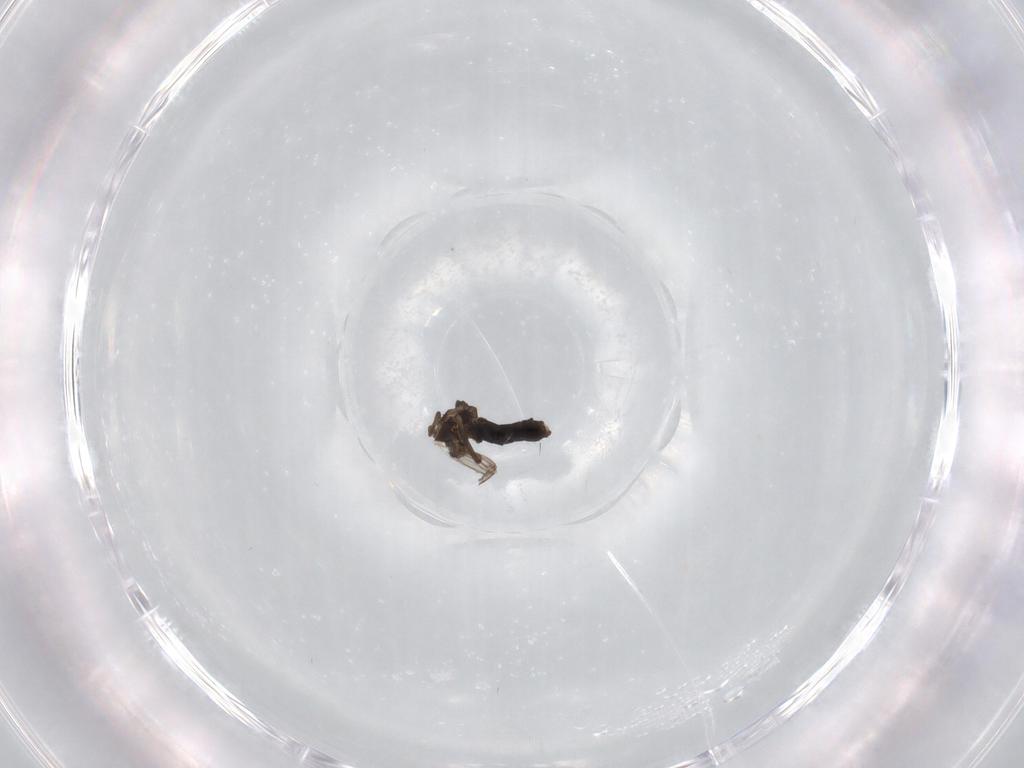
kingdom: Animalia
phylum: Arthropoda
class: Insecta
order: Diptera
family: Chironomidae
